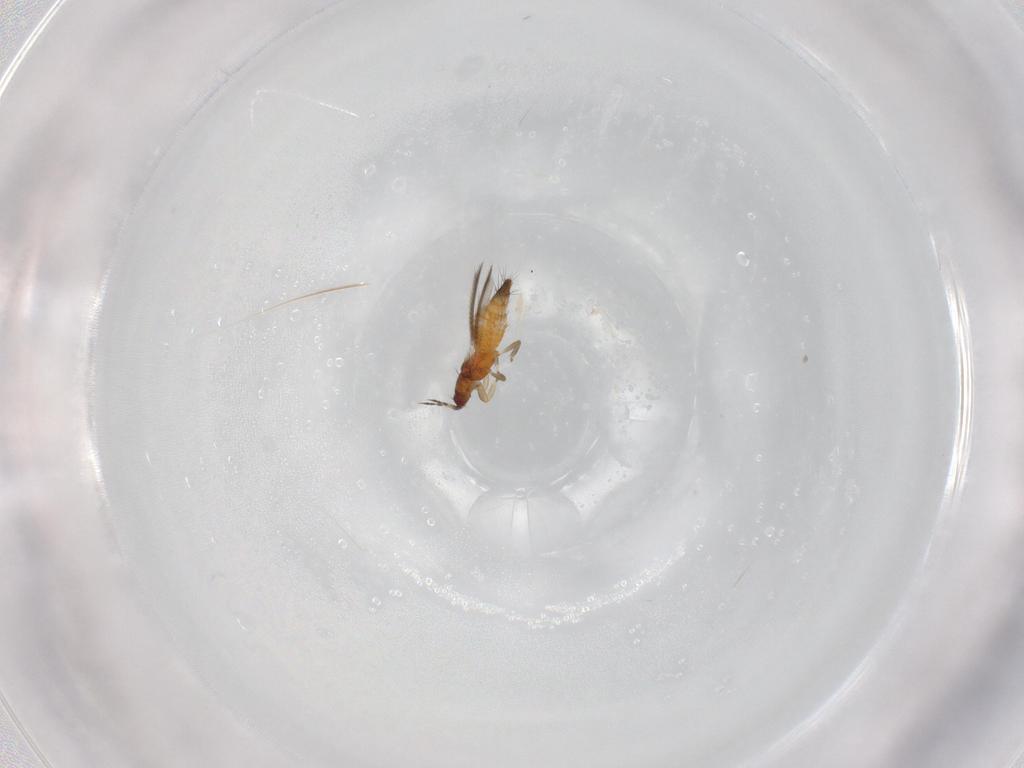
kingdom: Animalia
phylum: Arthropoda
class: Insecta
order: Thysanoptera
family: Thripidae
